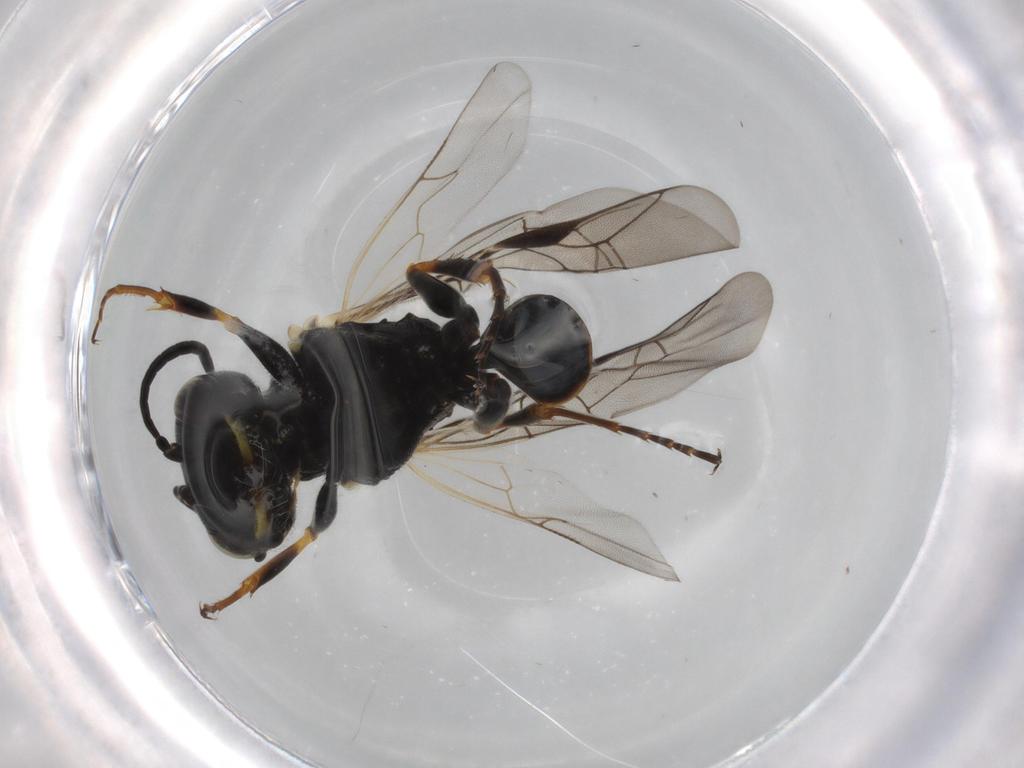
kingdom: Animalia
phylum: Arthropoda
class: Insecta
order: Hymenoptera
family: Pemphredonidae
